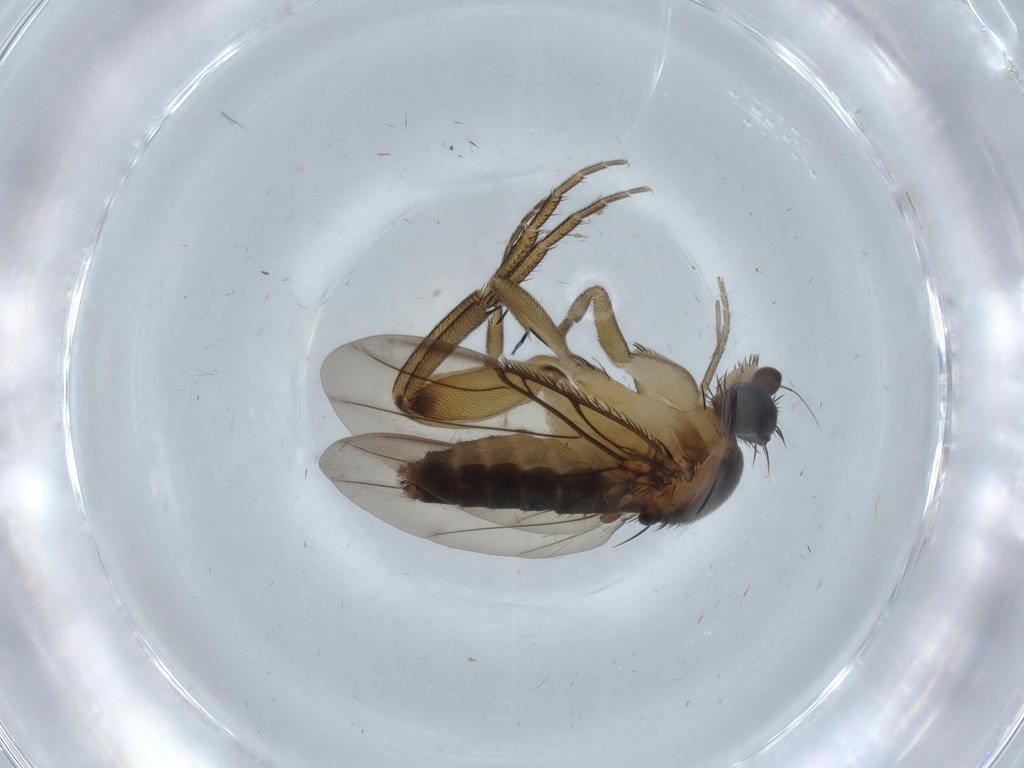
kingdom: Animalia
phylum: Arthropoda
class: Insecta
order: Diptera
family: Phoridae
